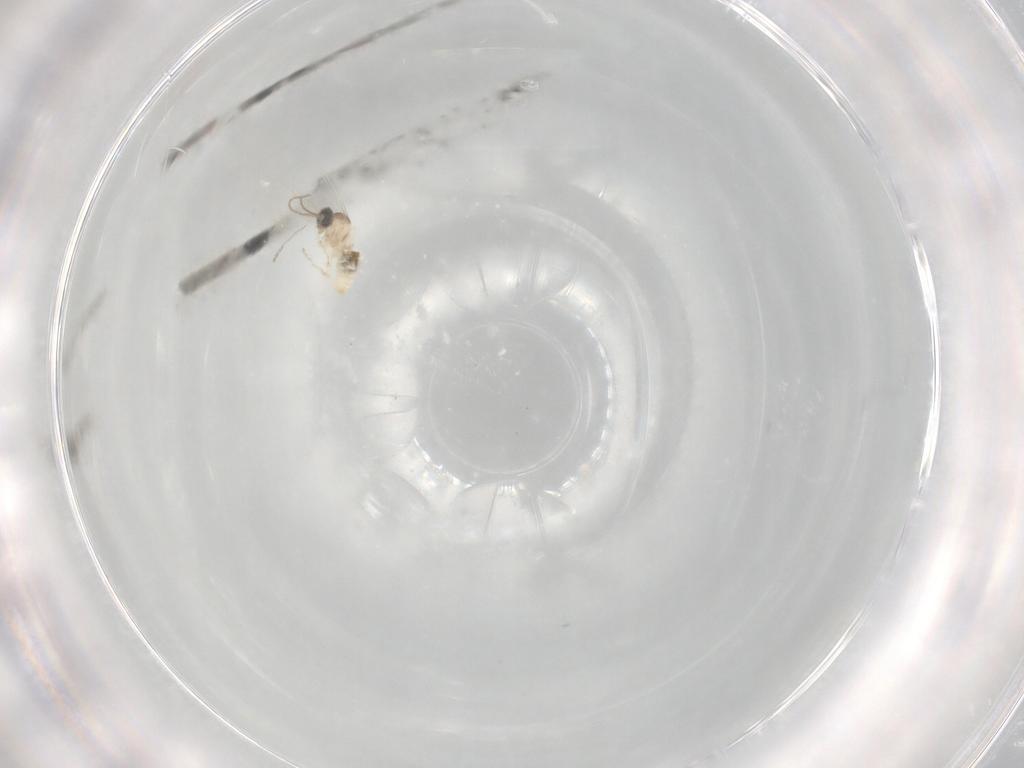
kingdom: Animalia
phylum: Arthropoda
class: Insecta
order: Diptera
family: Cecidomyiidae
